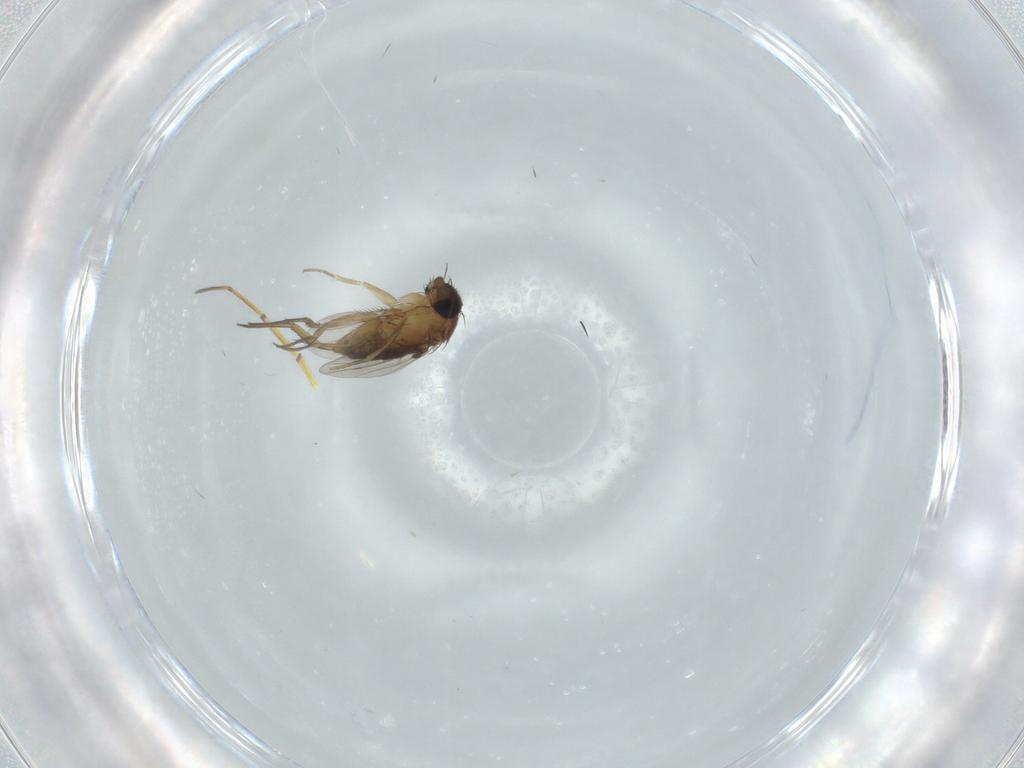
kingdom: Animalia
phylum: Arthropoda
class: Insecta
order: Diptera
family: Phoridae
